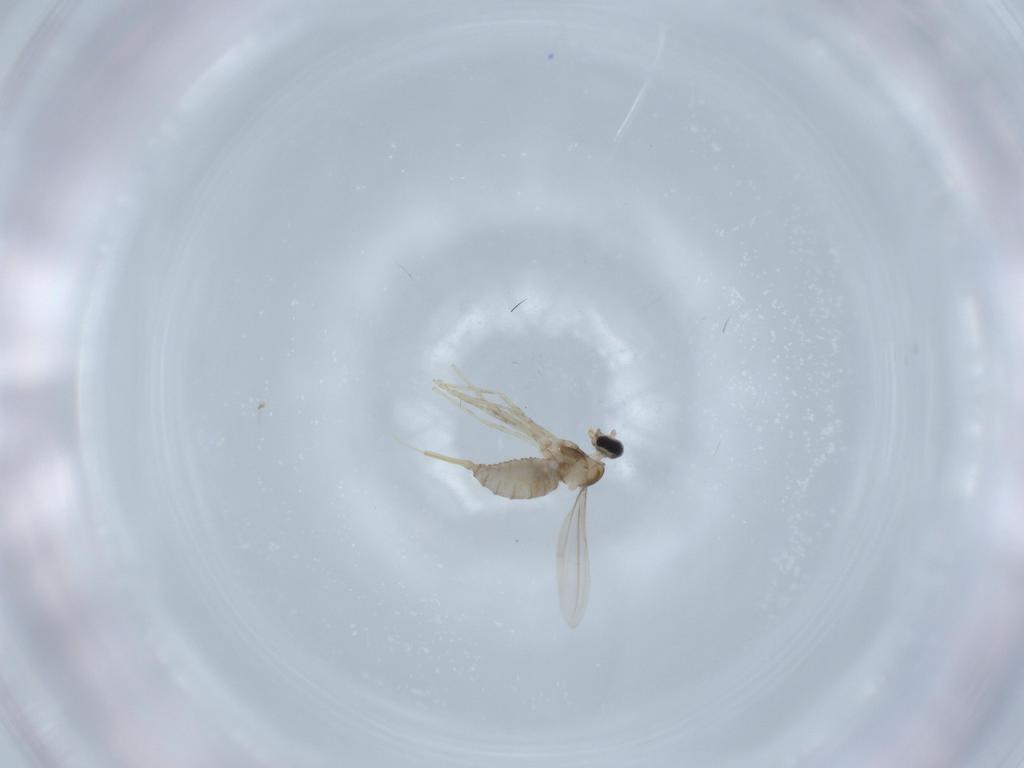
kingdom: Animalia
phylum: Arthropoda
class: Insecta
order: Diptera
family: Cecidomyiidae
